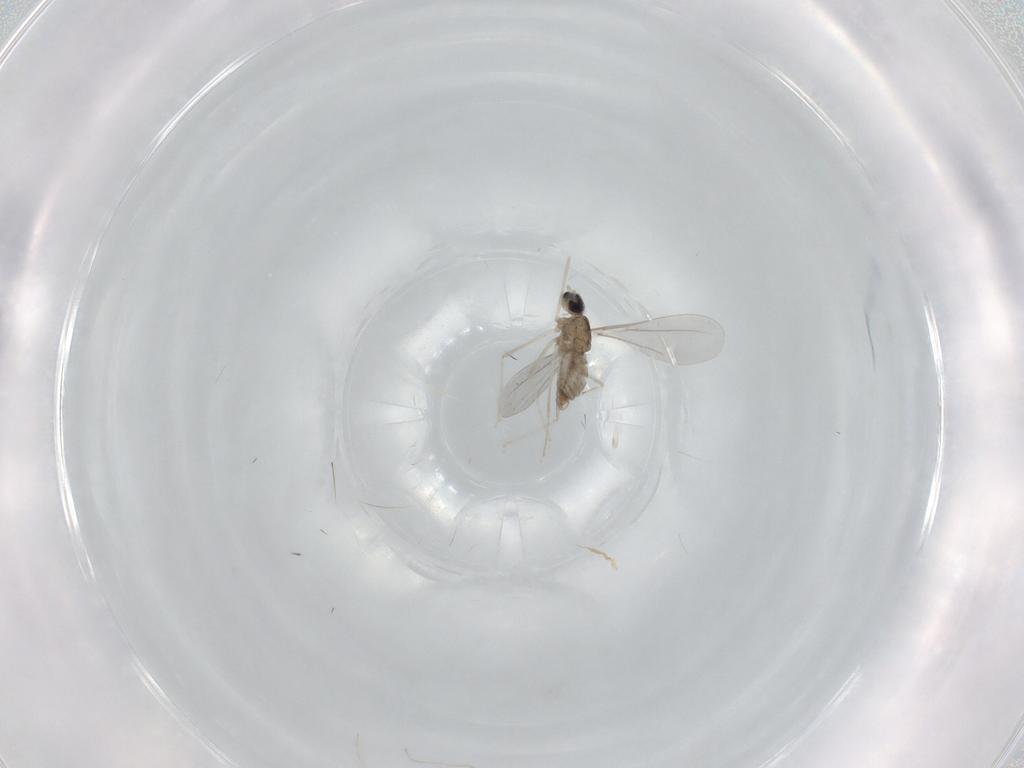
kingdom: Animalia
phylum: Arthropoda
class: Insecta
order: Diptera
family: Cecidomyiidae
